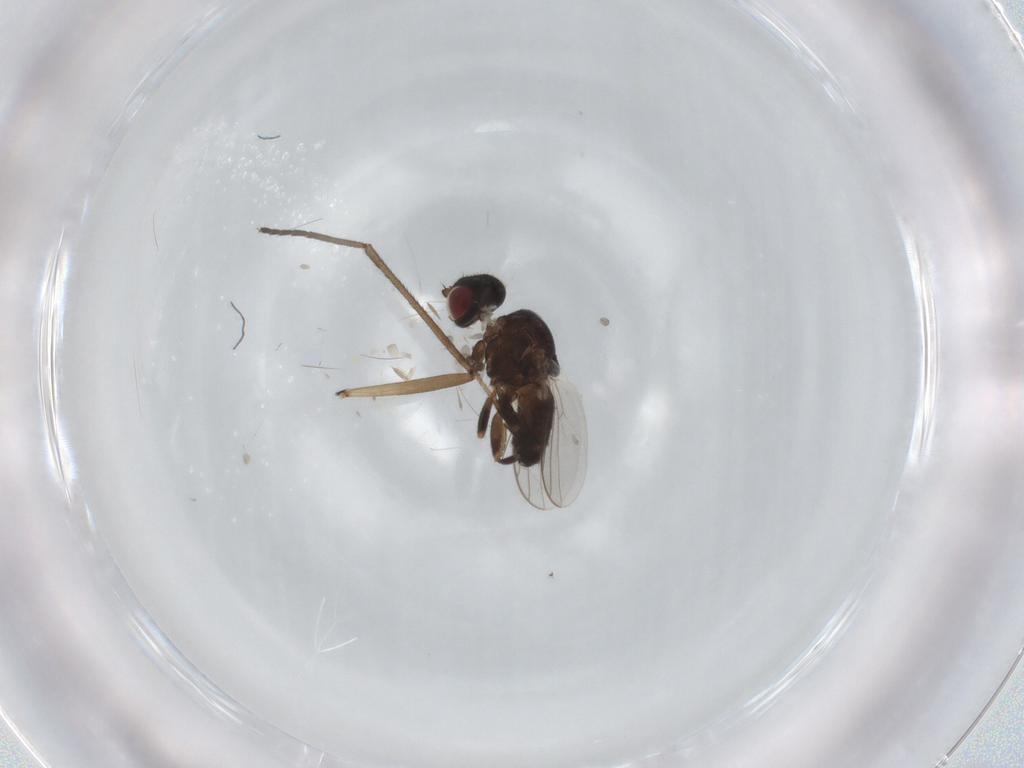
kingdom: Animalia
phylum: Arthropoda
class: Insecta
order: Diptera
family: Chloropidae
